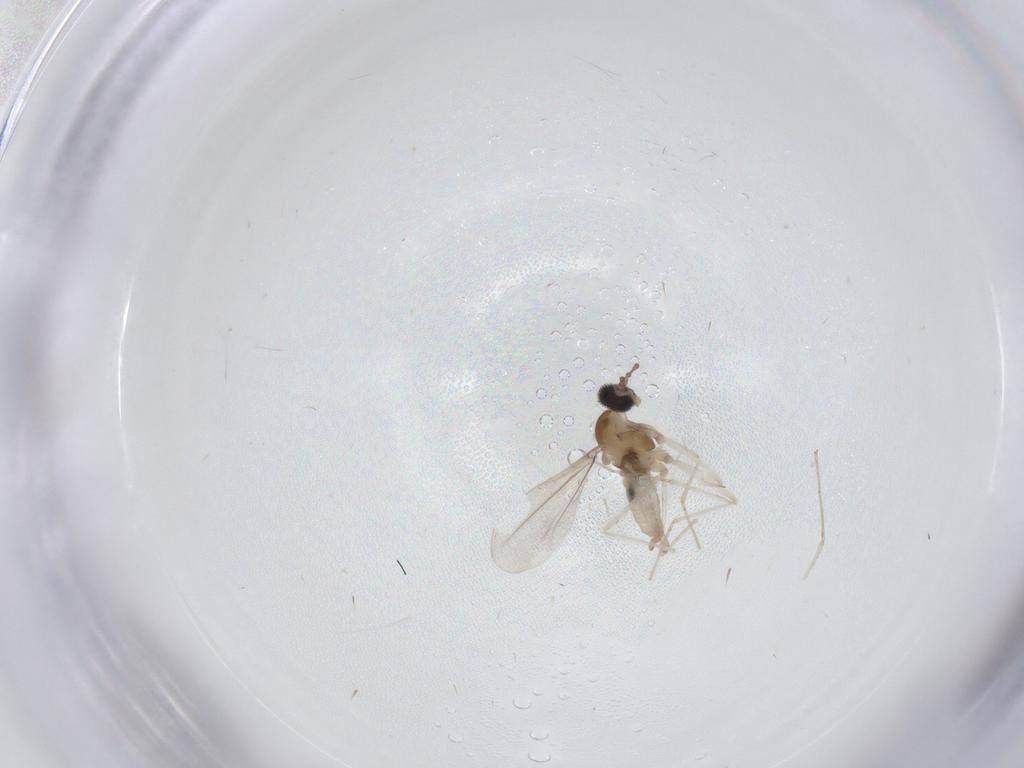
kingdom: Animalia
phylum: Arthropoda
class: Insecta
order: Diptera
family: Cecidomyiidae
